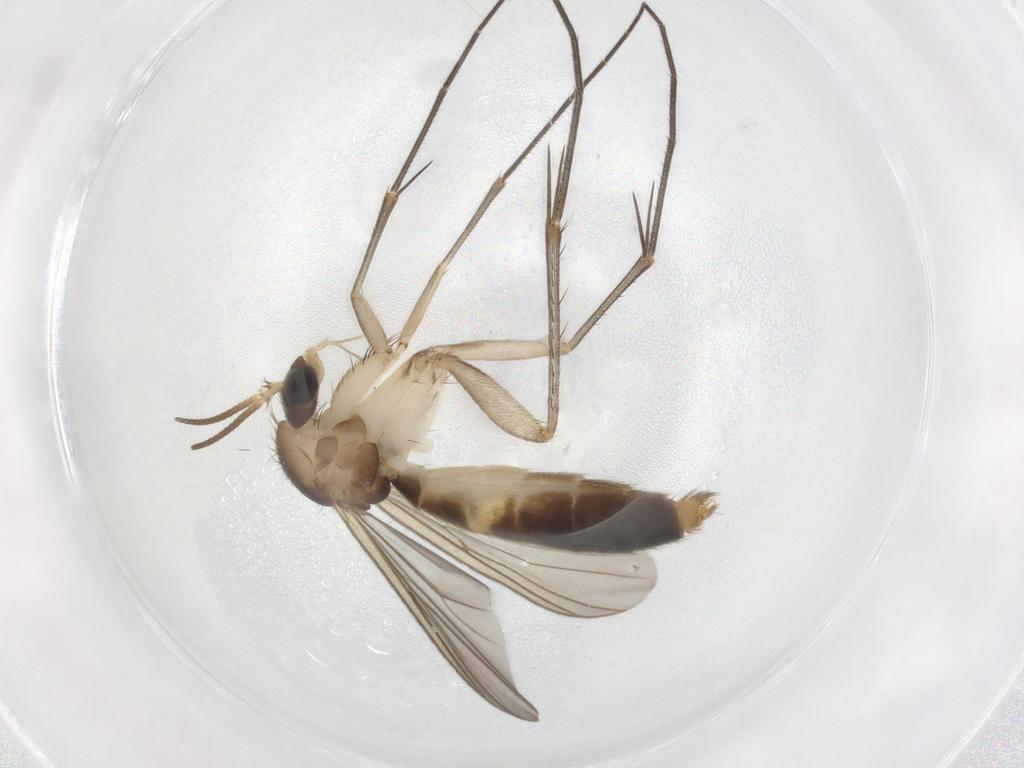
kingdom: Animalia
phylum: Arthropoda
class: Insecta
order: Diptera
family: Sciaridae
